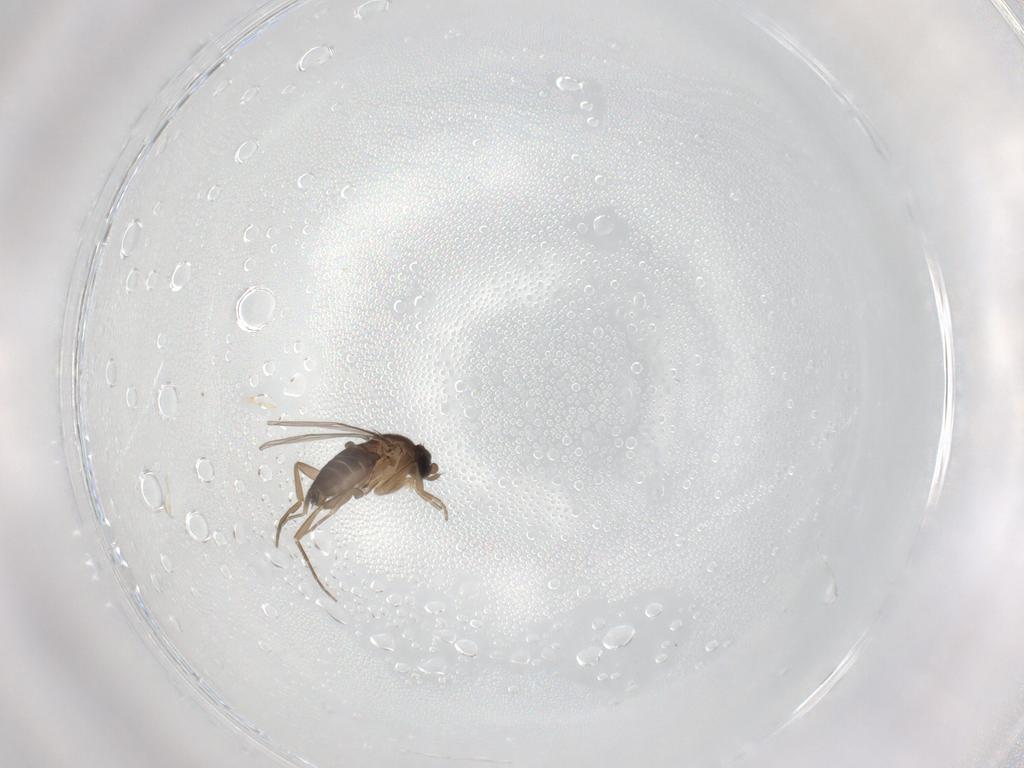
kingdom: Animalia
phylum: Arthropoda
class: Insecta
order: Diptera
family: Phoridae
